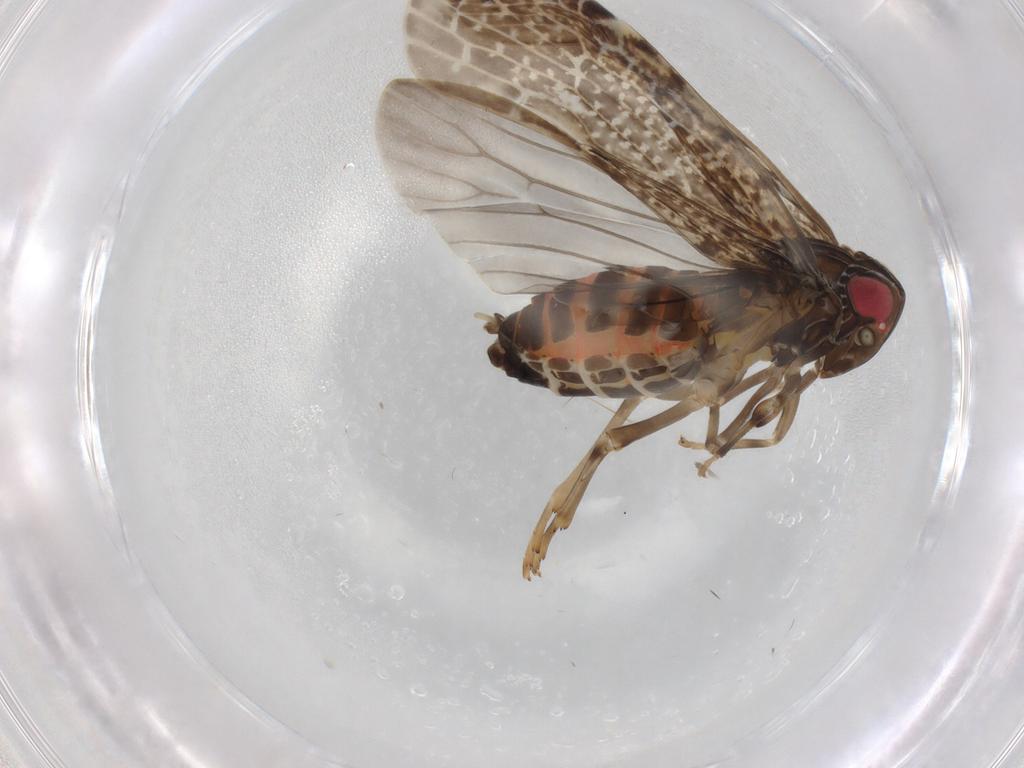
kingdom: Animalia
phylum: Arthropoda
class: Insecta
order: Hemiptera
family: Achilidae
